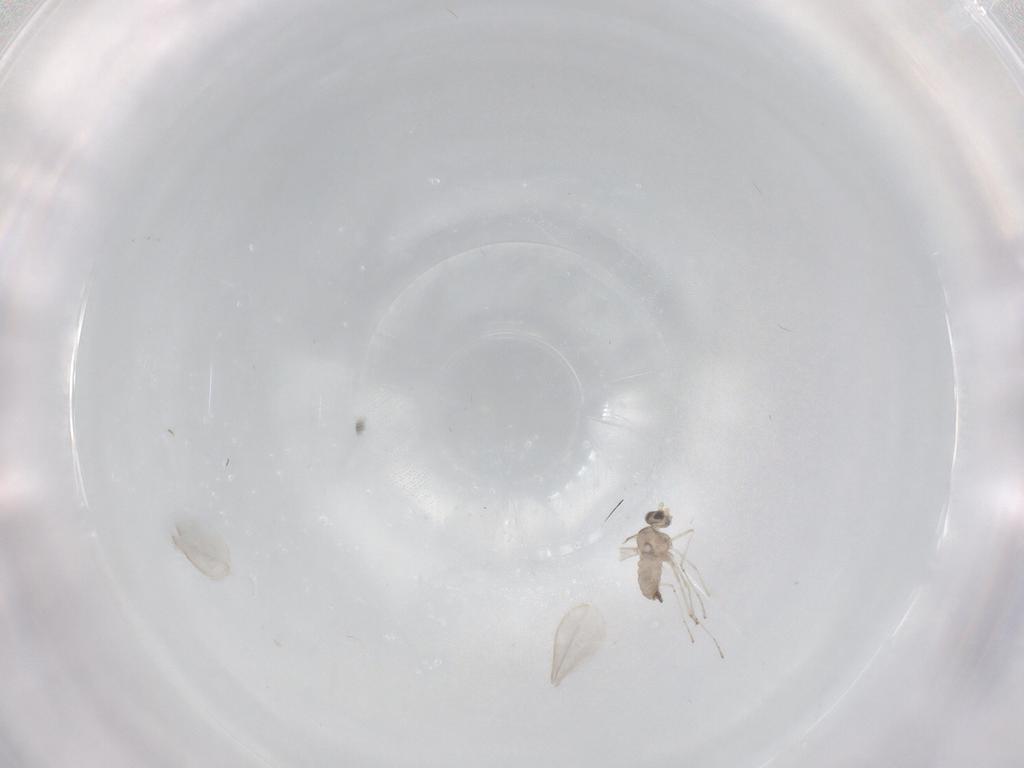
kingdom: Animalia
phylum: Arthropoda
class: Insecta
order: Diptera
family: Cecidomyiidae
